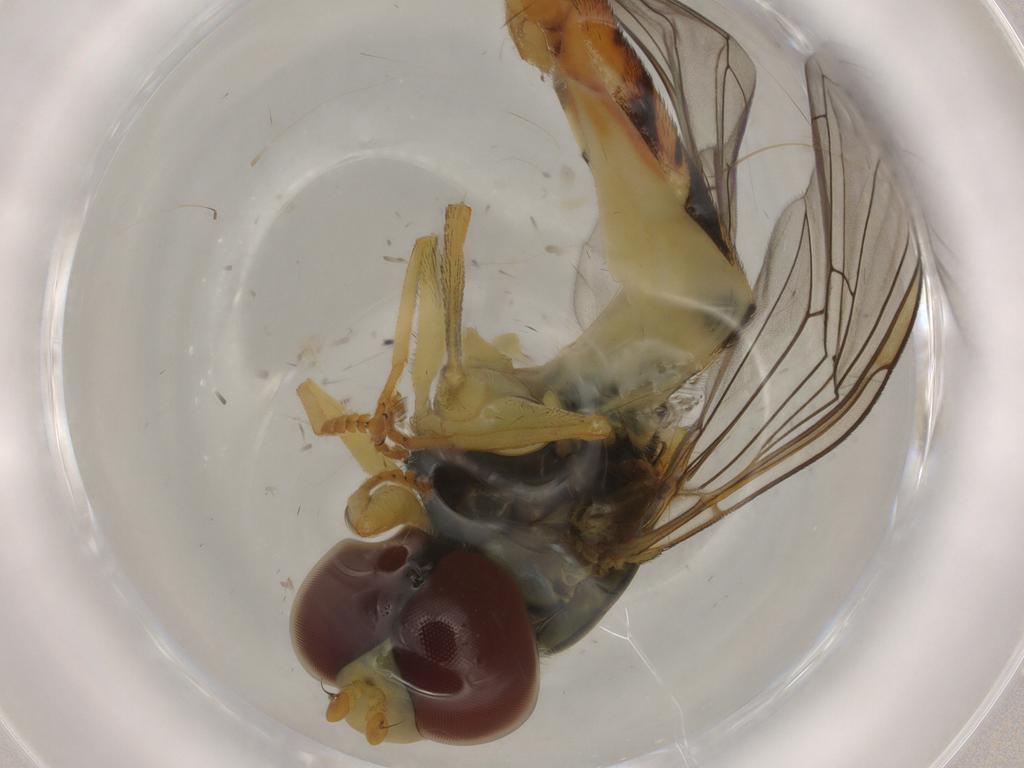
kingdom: Animalia
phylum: Arthropoda
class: Insecta
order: Diptera
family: Syrphidae
